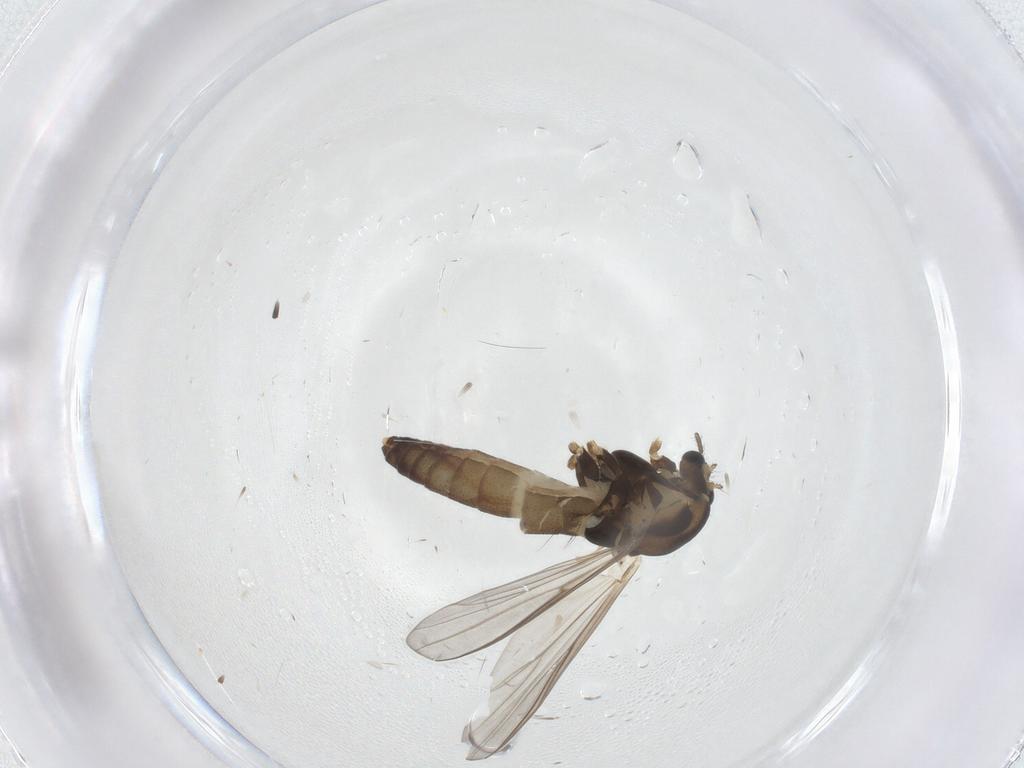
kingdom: Animalia
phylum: Arthropoda
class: Insecta
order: Diptera
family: Chironomidae
